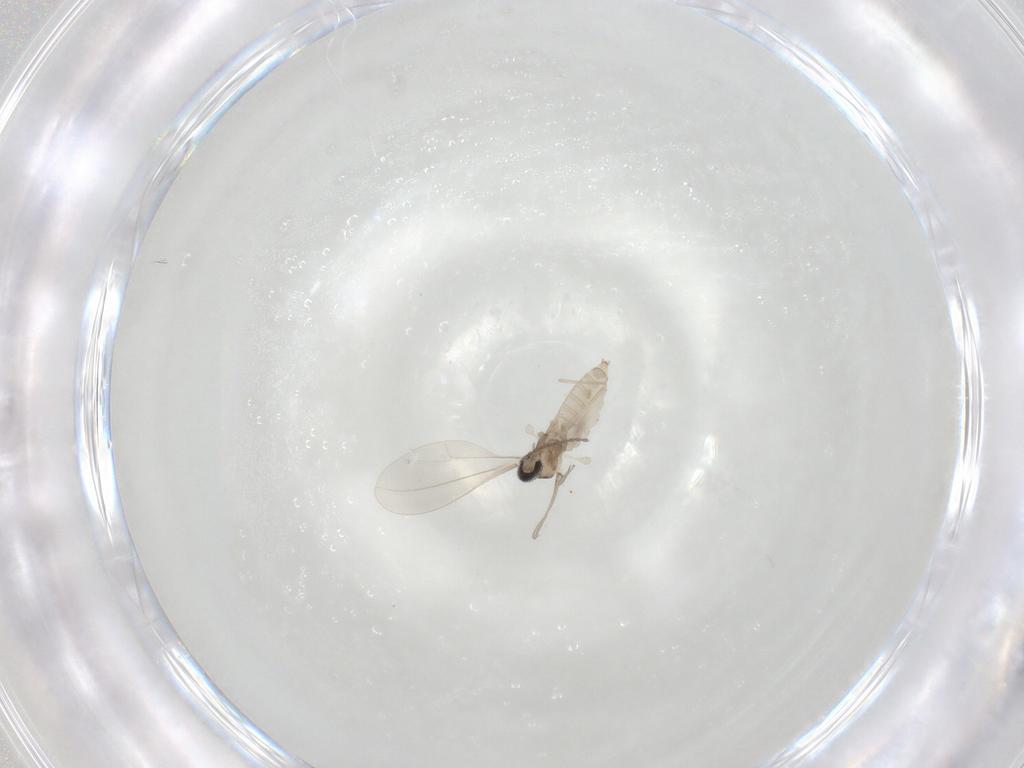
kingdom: Animalia
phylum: Arthropoda
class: Insecta
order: Diptera
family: Cecidomyiidae
